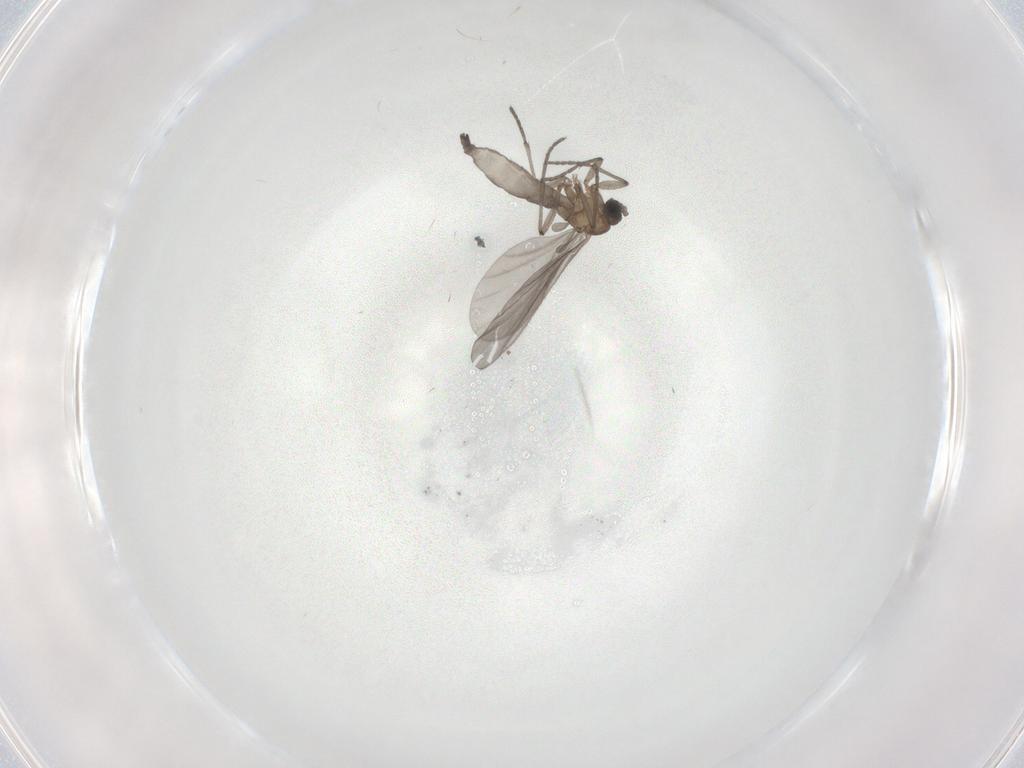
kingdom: Animalia
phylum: Arthropoda
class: Insecta
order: Diptera
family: Sciaridae
